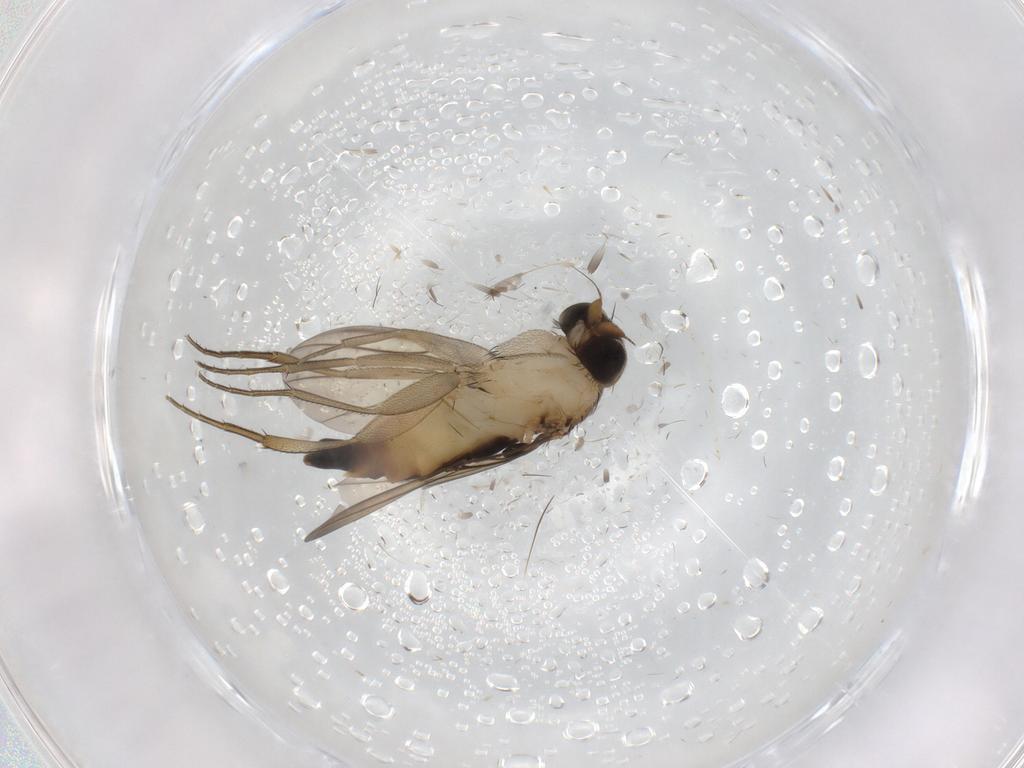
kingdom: Animalia
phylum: Arthropoda
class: Insecta
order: Diptera
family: Phoridae
